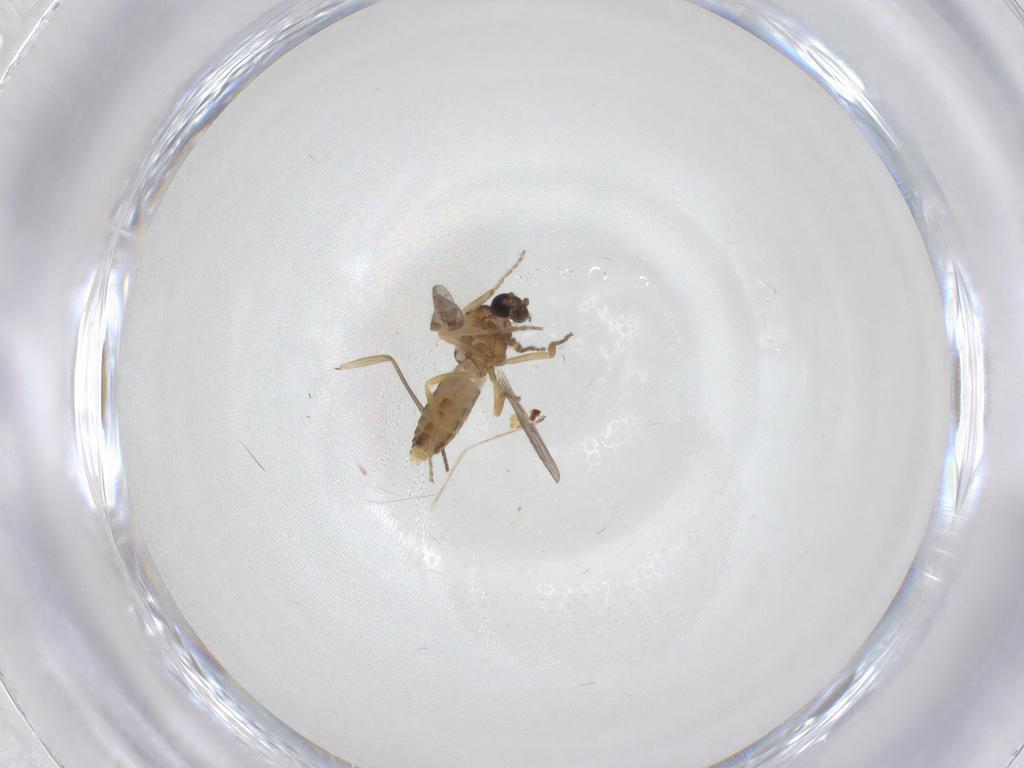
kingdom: Animalia
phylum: Arthropoda
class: Insecta
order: Diptera
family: Ceratopogonidae
